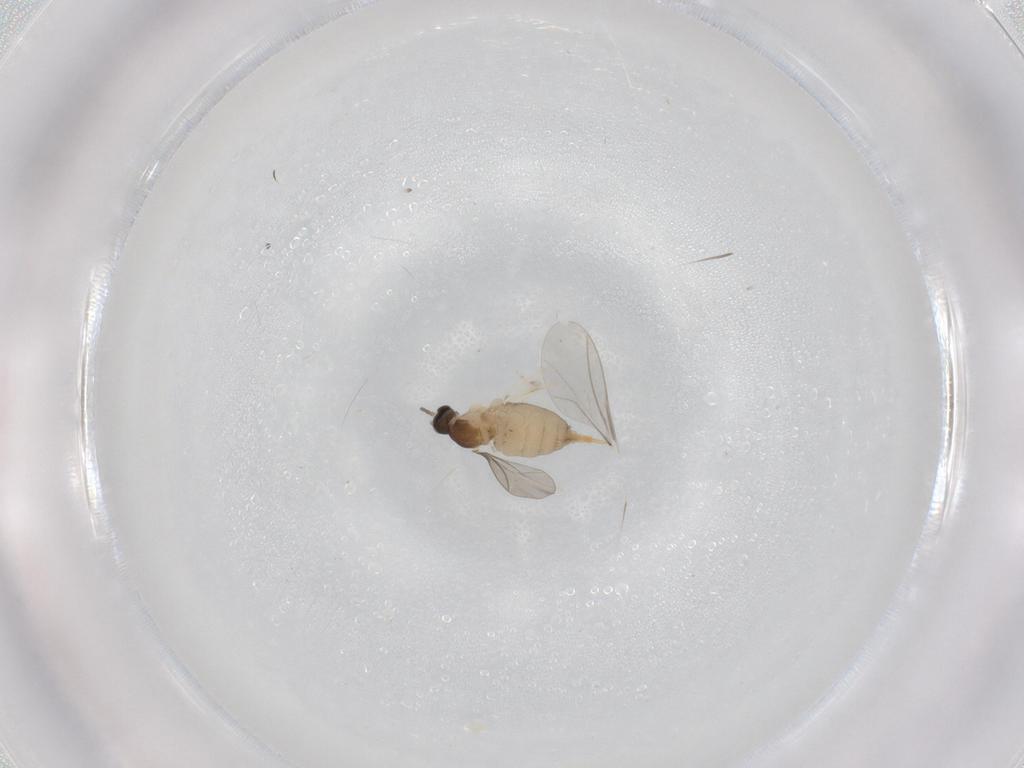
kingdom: Animalia
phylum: Arthropoda
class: Insecta
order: Diptera
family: Cecidomyiidae
